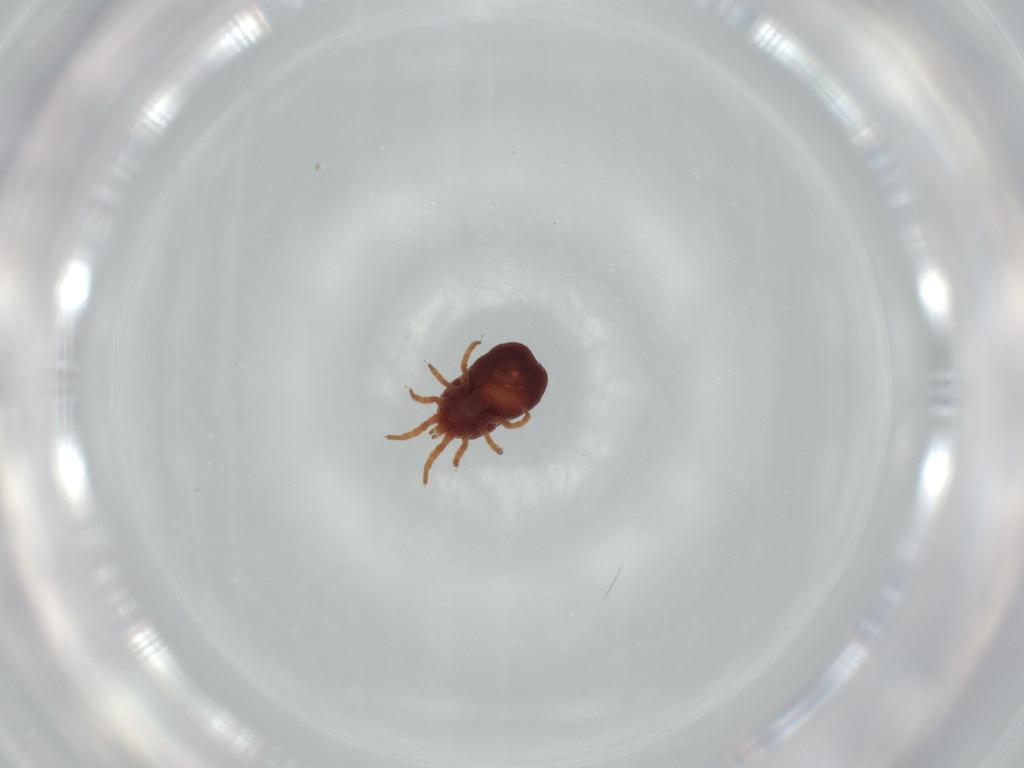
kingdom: Animalia
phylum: Arthropoda
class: Arachnida
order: Mesostigmata
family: Dermanyssidae
